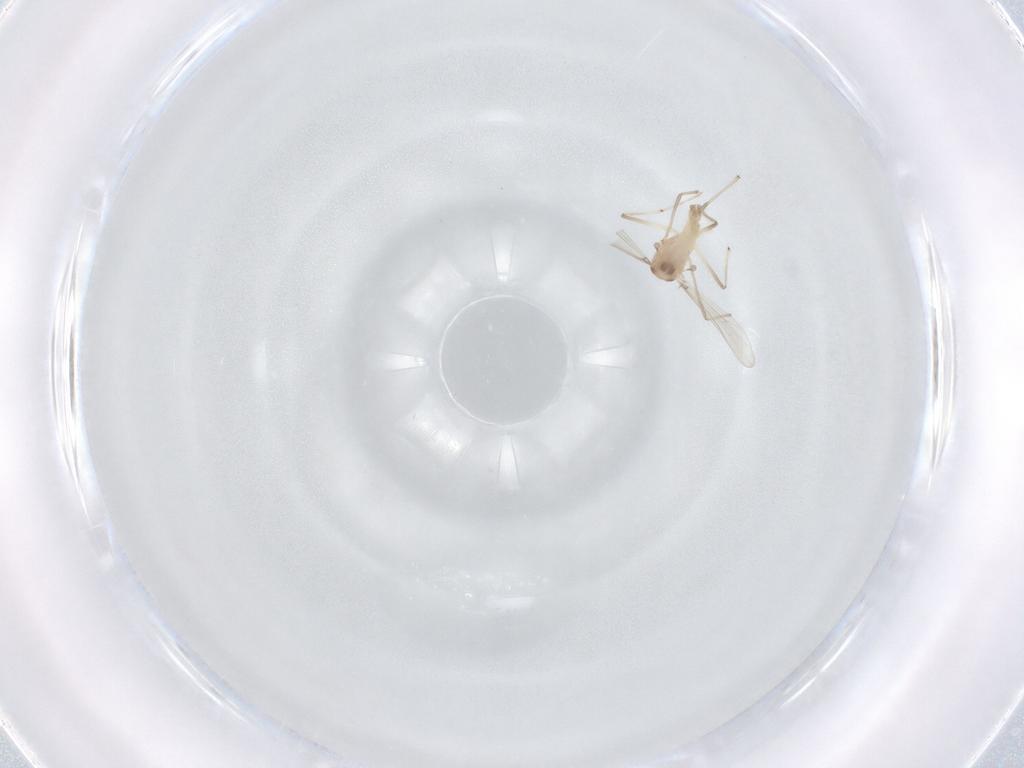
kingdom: Animalia
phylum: Arthropoda
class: Insecta
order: Diptera
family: Chironomidae
